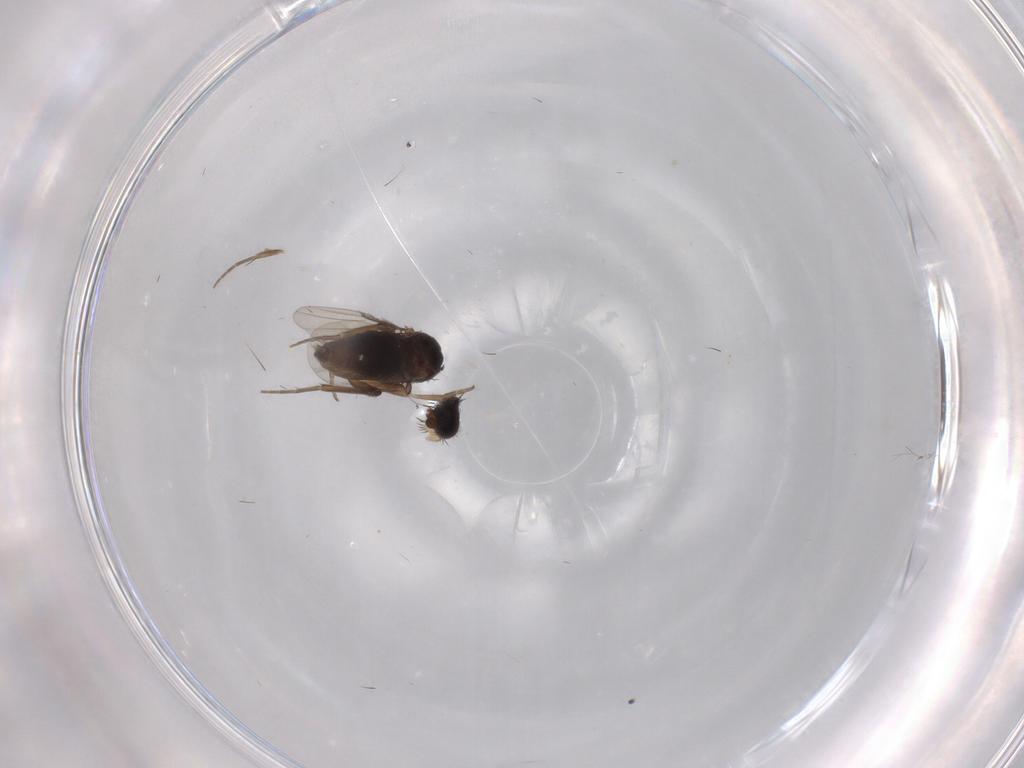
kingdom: Animalia
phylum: Arthropoda
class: Insecta
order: Diptera
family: Phoridae
